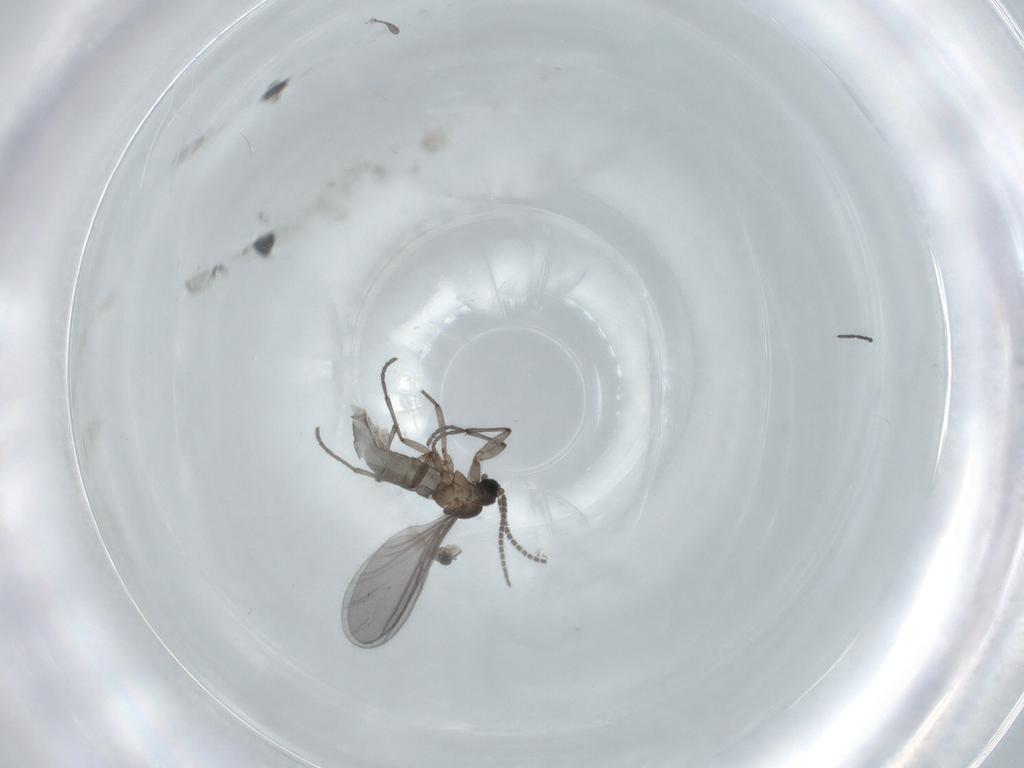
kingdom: Animalia
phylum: Arthropoda
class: Insecta
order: Diptera
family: Sciaridae
